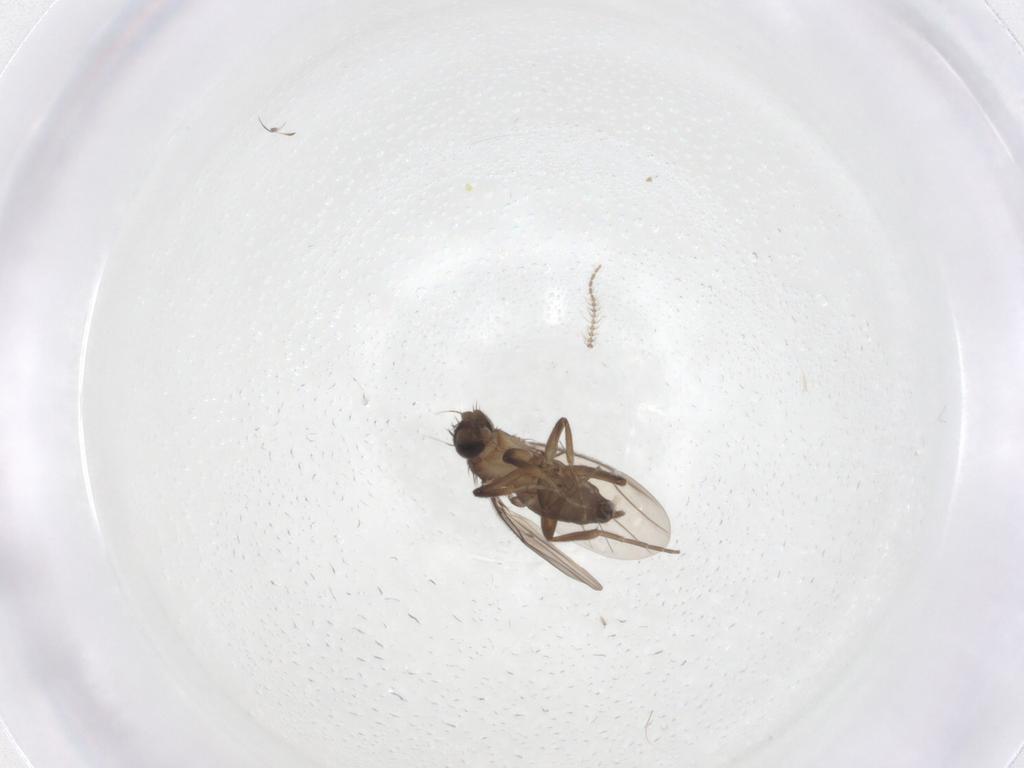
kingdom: Animalia
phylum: Arthropoda
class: Insecta
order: Diptera
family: Phoridae
